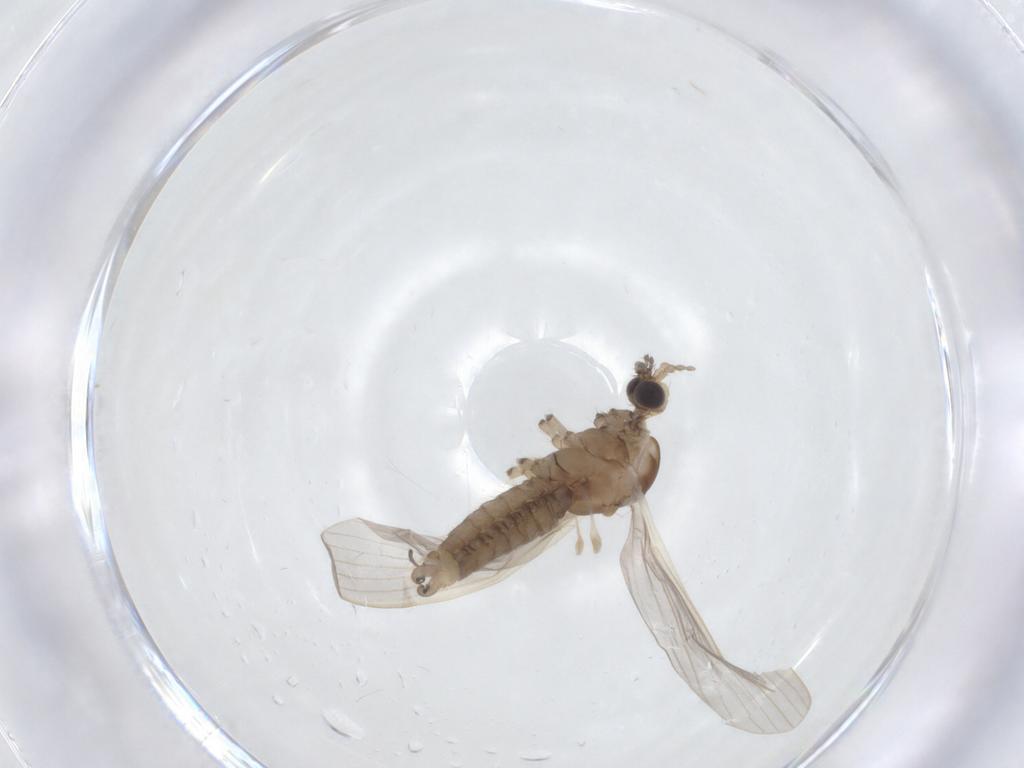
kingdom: Animalia
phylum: Arthropoda
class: Insecta
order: Diptera
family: Limoniidae
